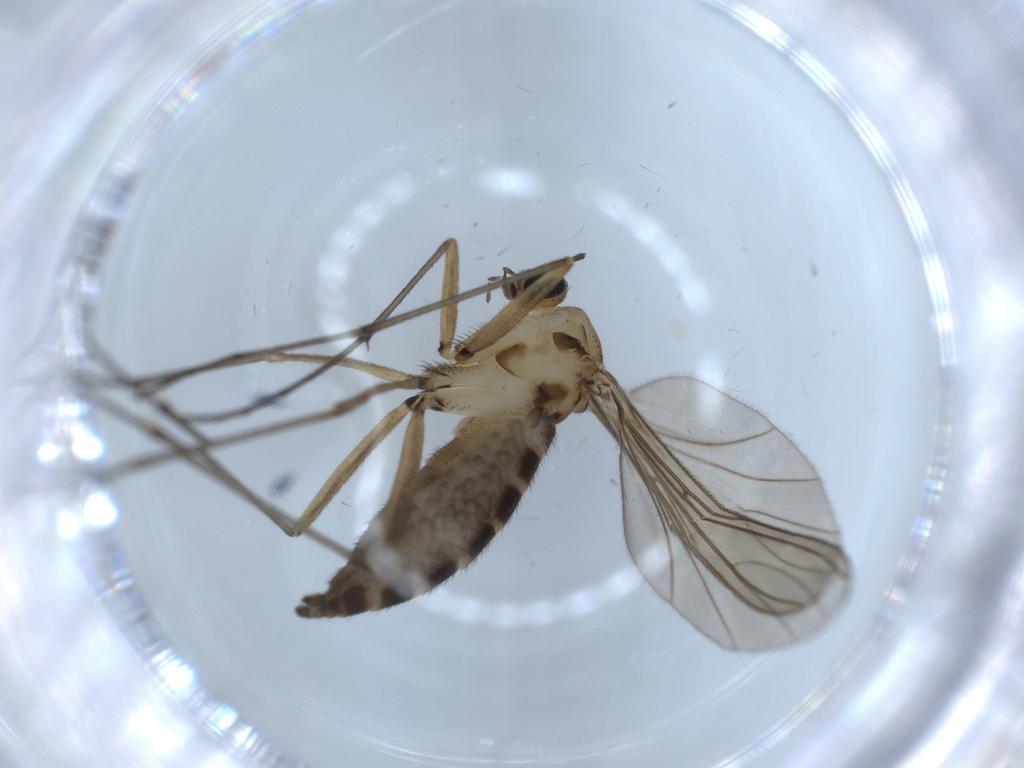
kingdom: Animalia
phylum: Arthropoda
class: Insecta
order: Diptera
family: Sciaridae
